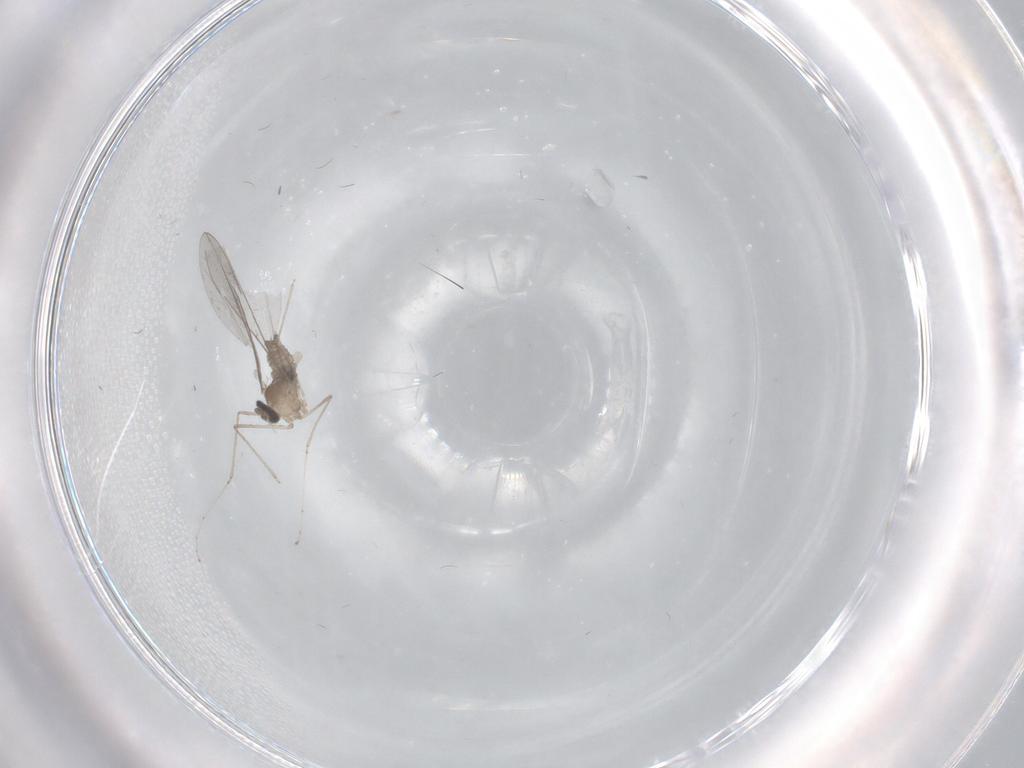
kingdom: Animalia
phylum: Arthropoda
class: Insecta
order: Diptera
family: Cecidomyiidae
